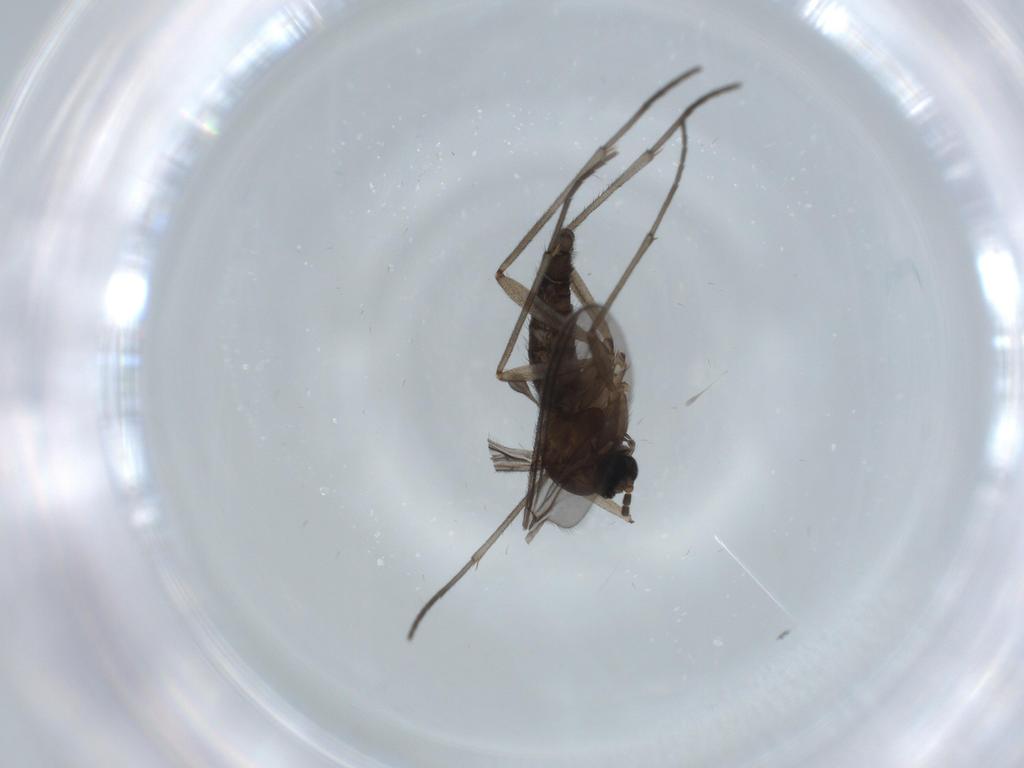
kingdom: Animalia
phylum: Arthropoda
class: Insecta
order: Diptera
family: Sciaridae
